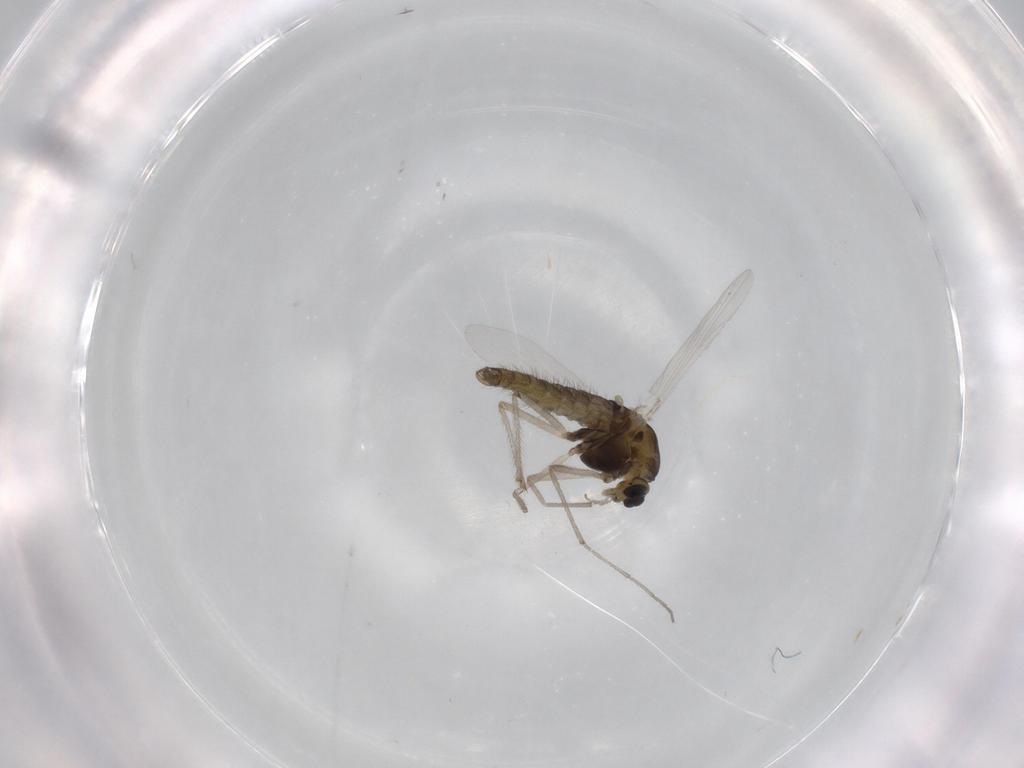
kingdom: Animalia
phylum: Arthropoda
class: Insecta
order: Diptera
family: Chironomidae
